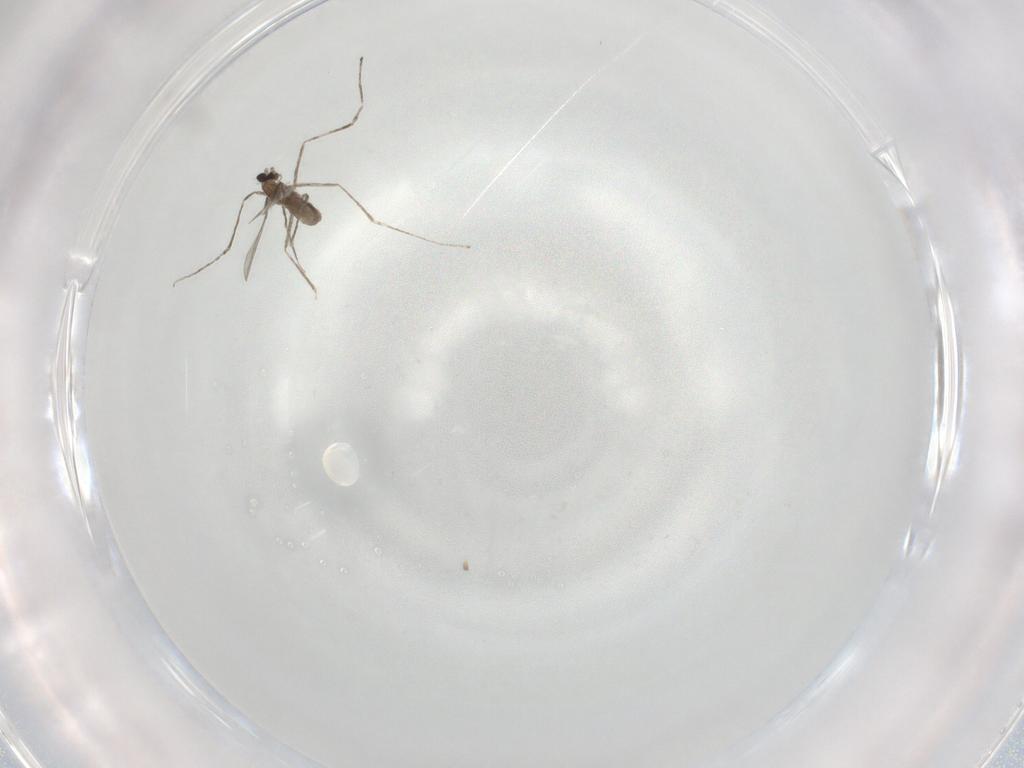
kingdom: Animalia
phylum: Arthropoda
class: Insecta
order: Diptera
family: Cecidomyiidae
